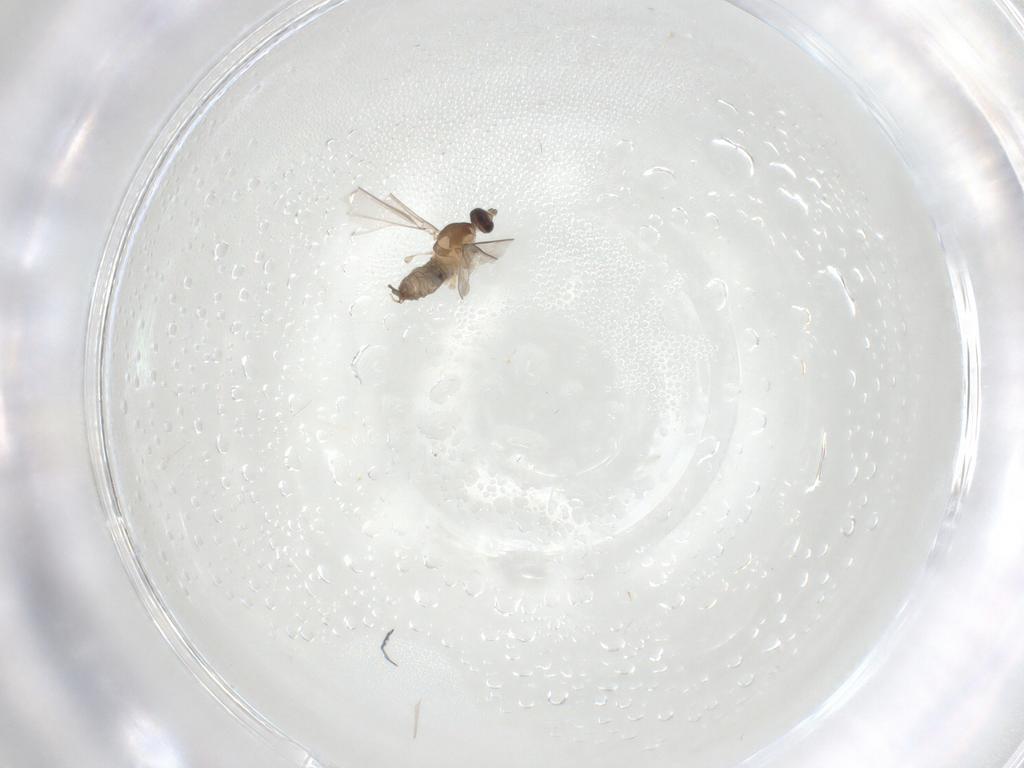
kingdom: Animalia
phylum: Arthropoda
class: Insecta
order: Diptera
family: Cecidomyiidae
